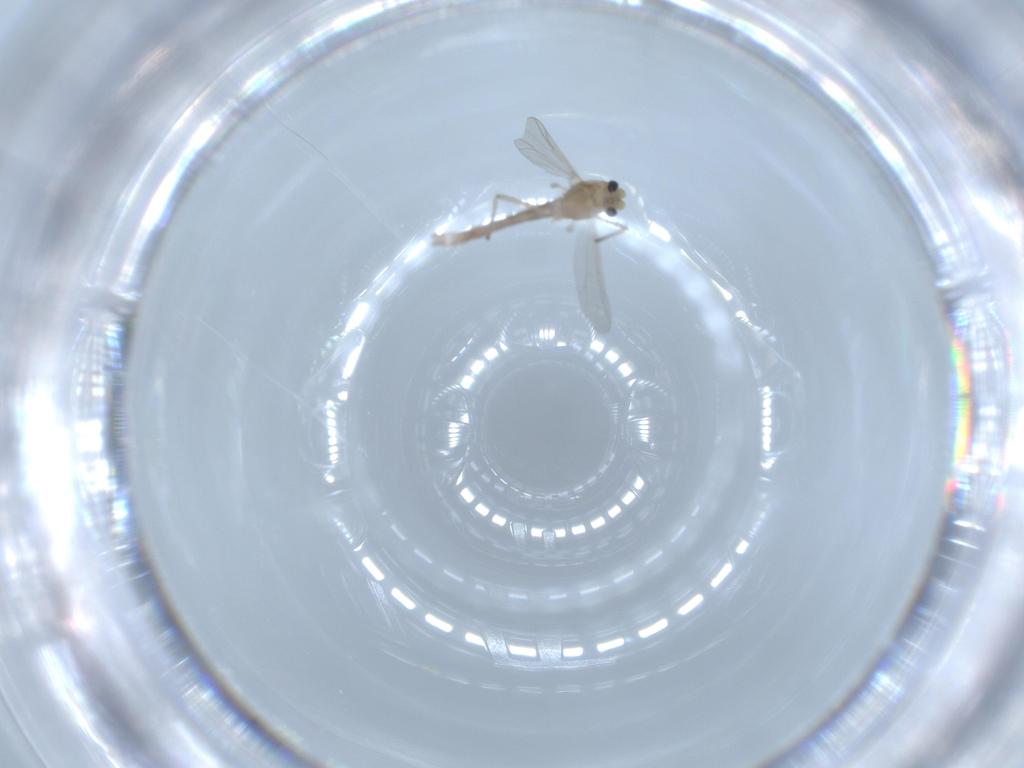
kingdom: Animalia
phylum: Arthropoda
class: Insecta
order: Diptera
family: Chironomidae
